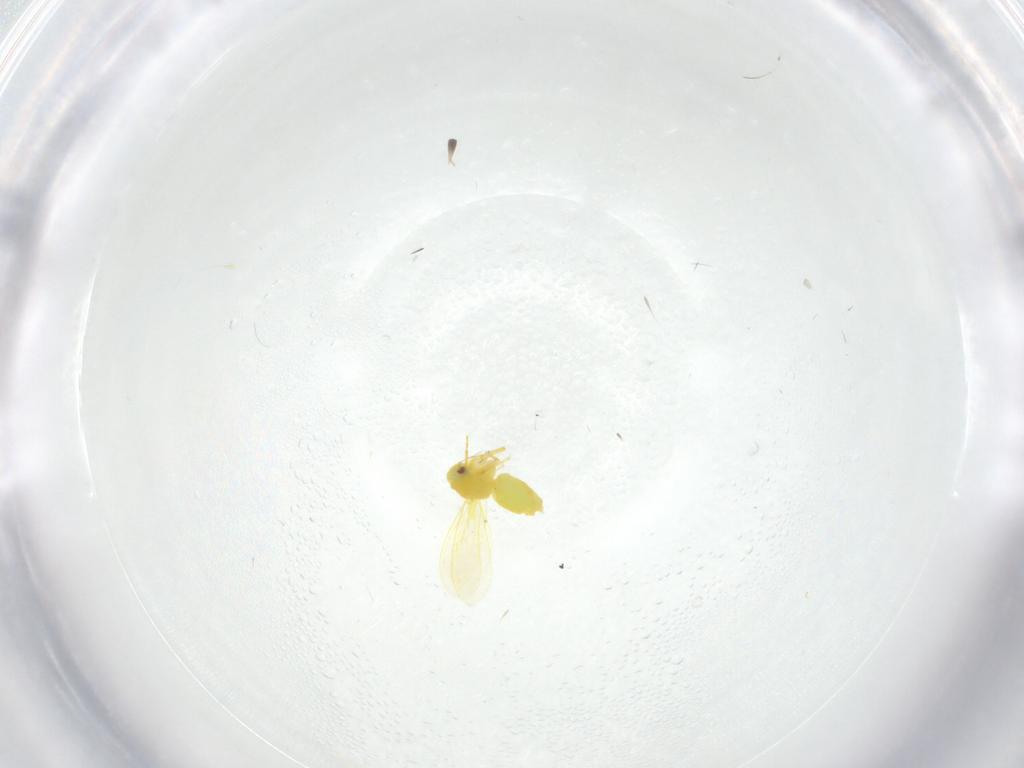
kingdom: Animalia
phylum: Arthropoda
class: Insecta
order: Hemiptera
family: Aleyrodidae
